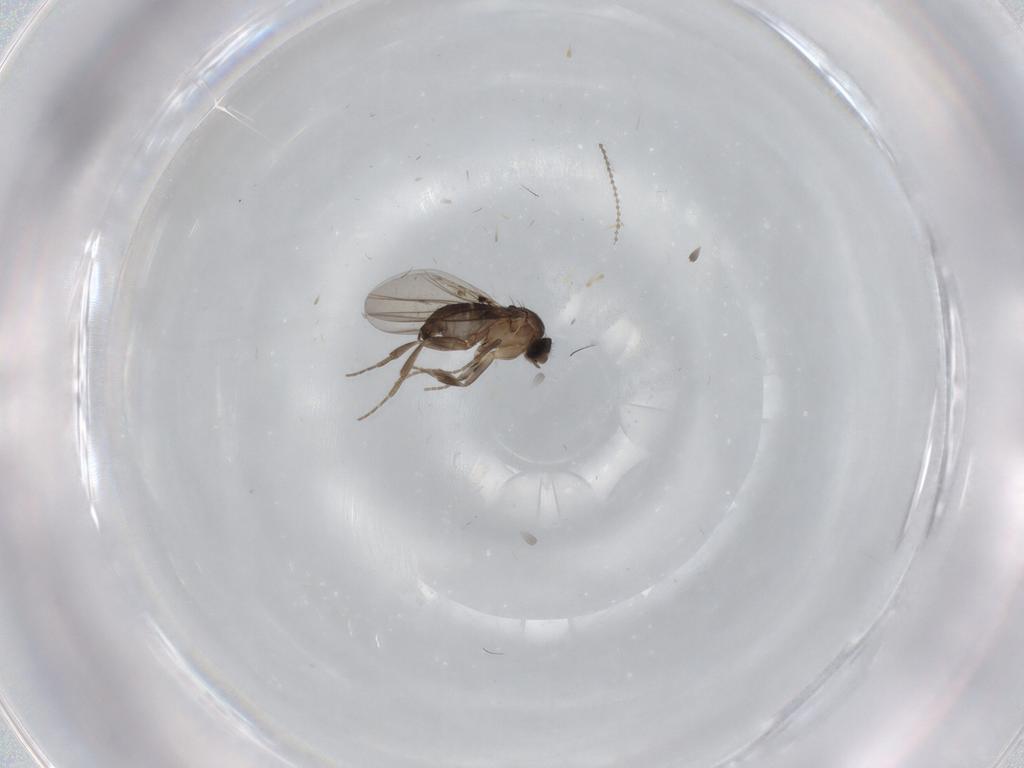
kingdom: Animalia
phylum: Arthropoda
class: Insecta
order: Diptera
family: Cecidomyiidae
